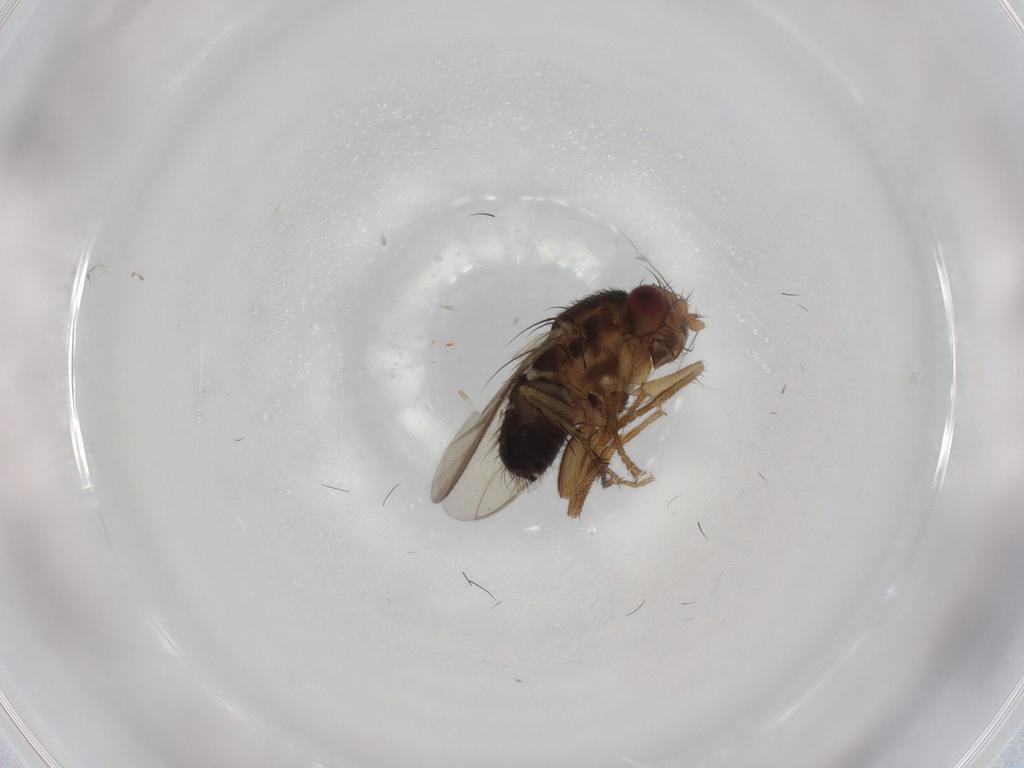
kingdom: Animalia
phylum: Arthropoda
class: Insecta
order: Diptera
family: Sphaeroceridae
